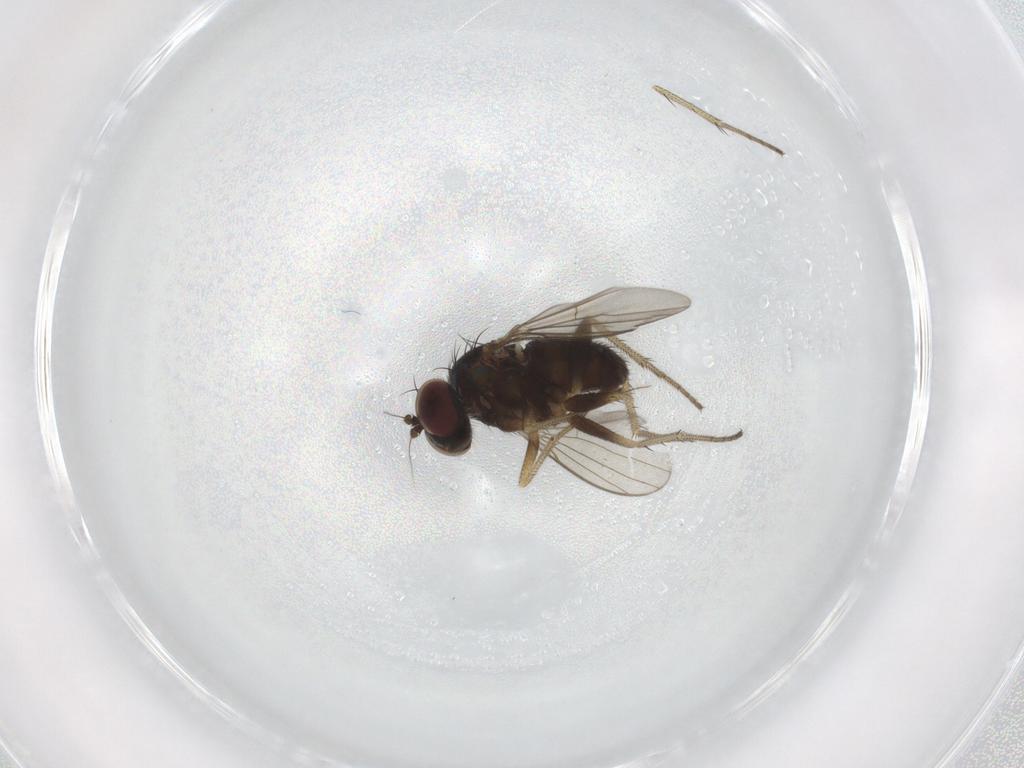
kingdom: Animalia
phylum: Arthropoda
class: Insecta
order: Diptera
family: Dolichopodidae
